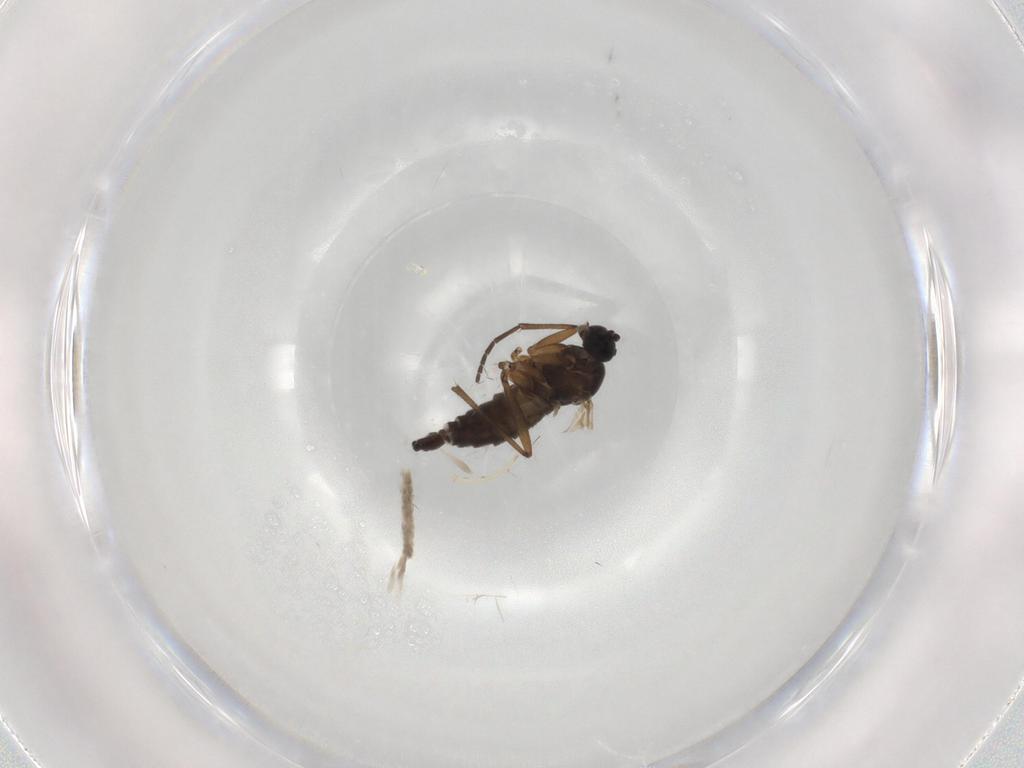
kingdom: Animalia
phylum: Arthropoda
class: Insecta
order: Diptera
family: Sciaridae
